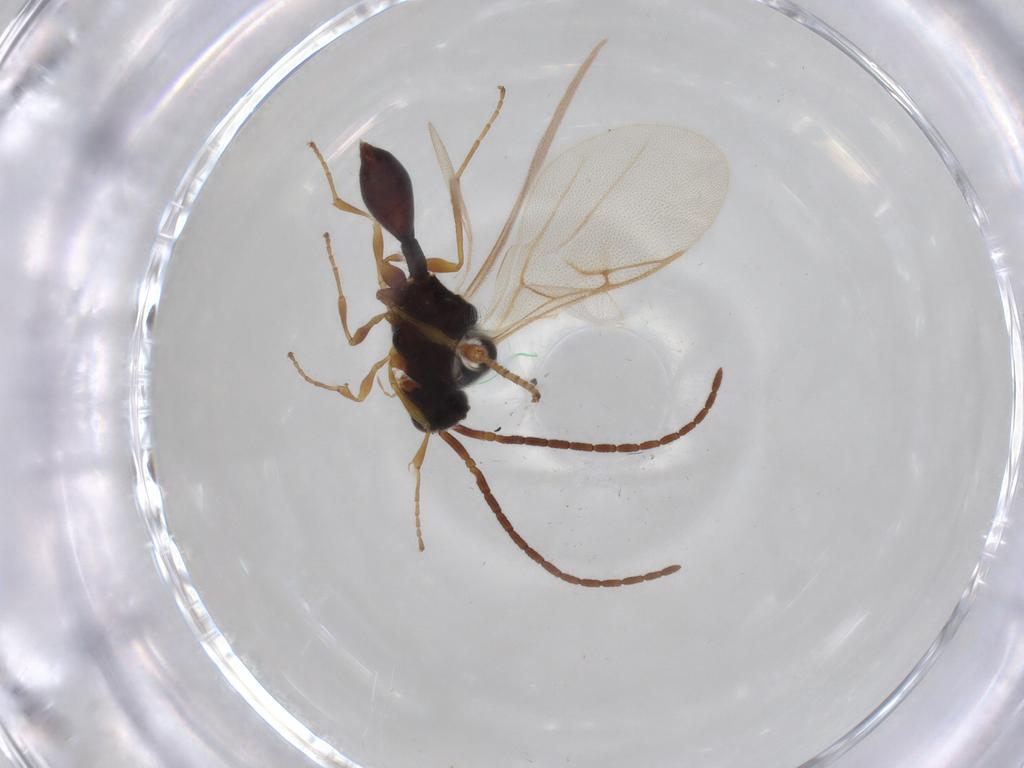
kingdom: Animalia
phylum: Arthropoda
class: Insecta
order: Hymenoptera
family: Diapriidae
